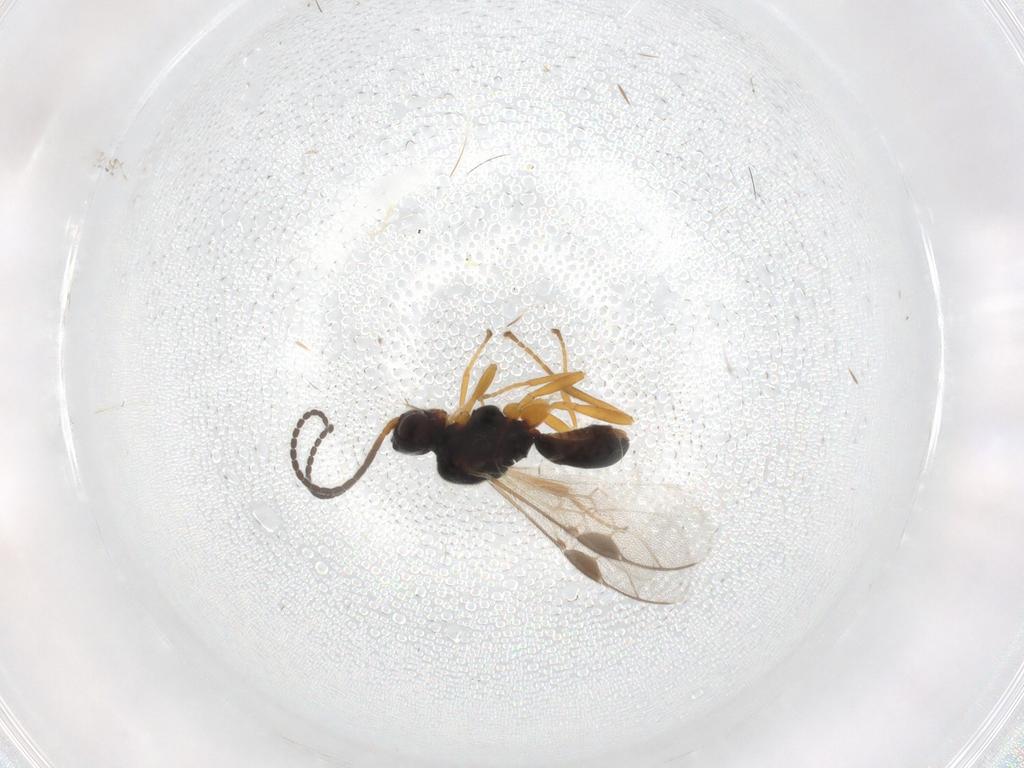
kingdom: Animalia
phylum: Arthropoda
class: Insecta
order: Hymenoptera
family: Braconidae
